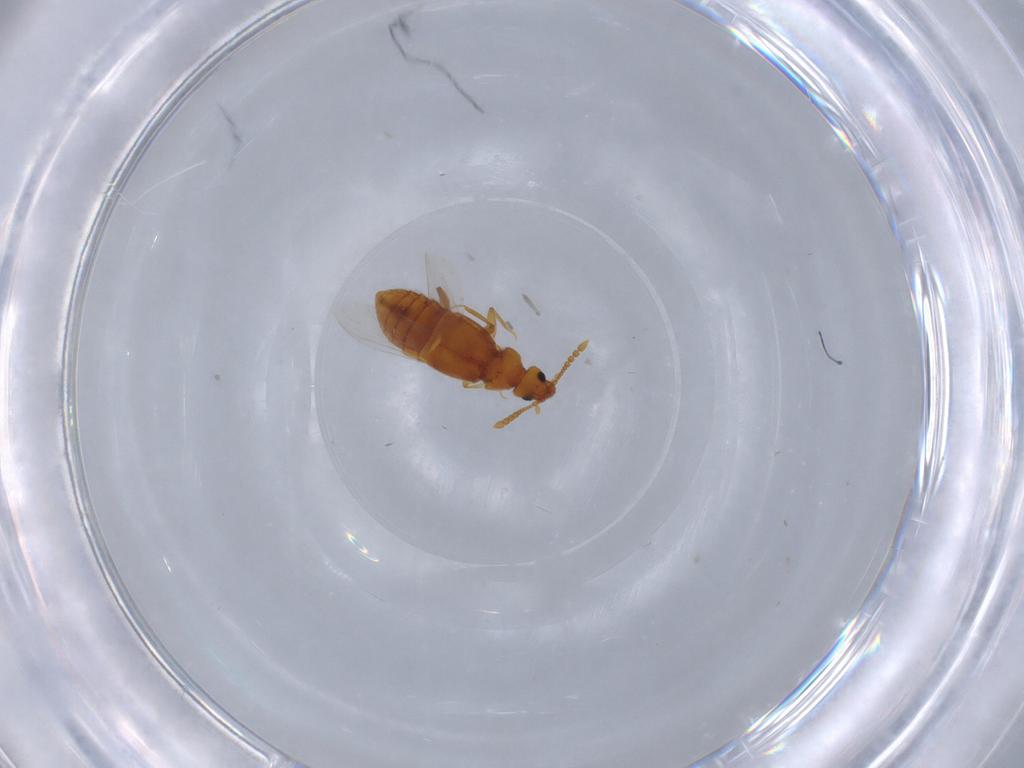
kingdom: Animalia
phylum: Arthropoda
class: Insecta
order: Coleoptera
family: Staphylinidae
